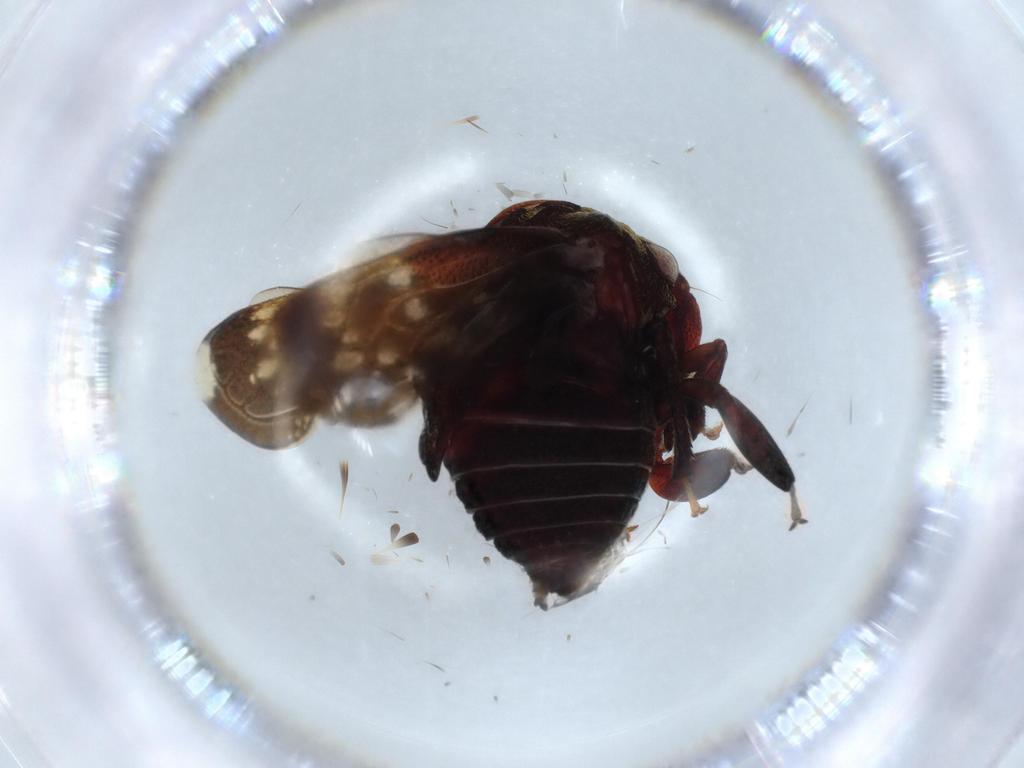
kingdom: Animalia
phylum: Arthropoda
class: Insecta
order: Hemiptera
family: Membracidae
